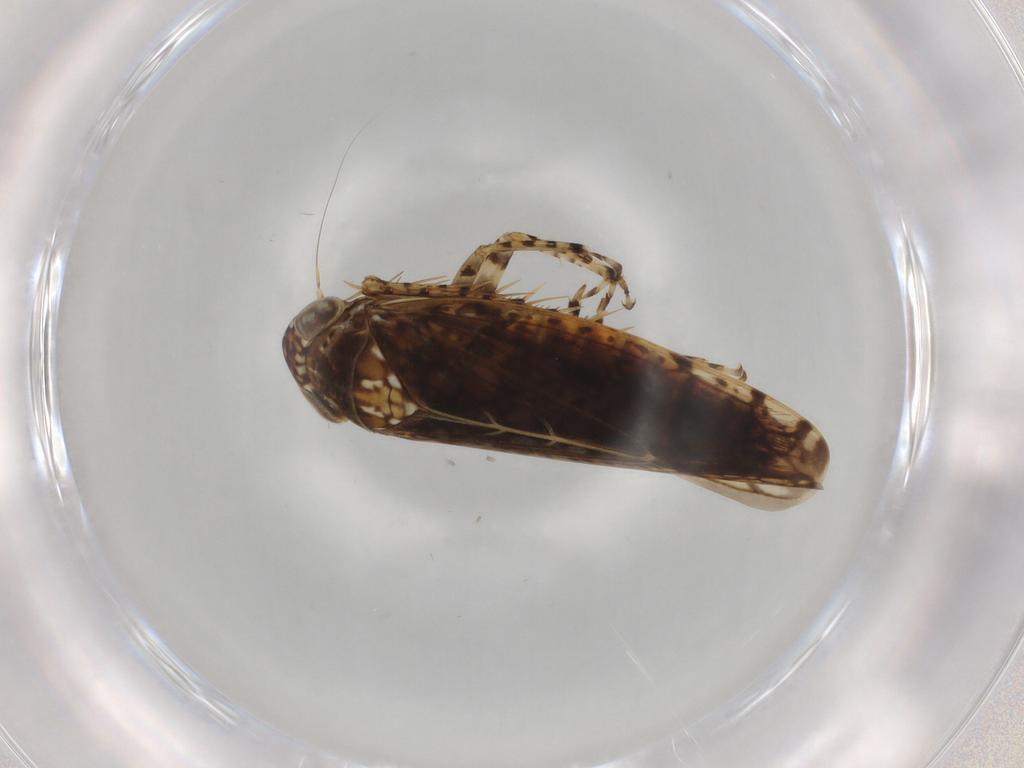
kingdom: Animalia
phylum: Arthropoda
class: Insecta
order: Hemiptera
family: Cicadellidae
